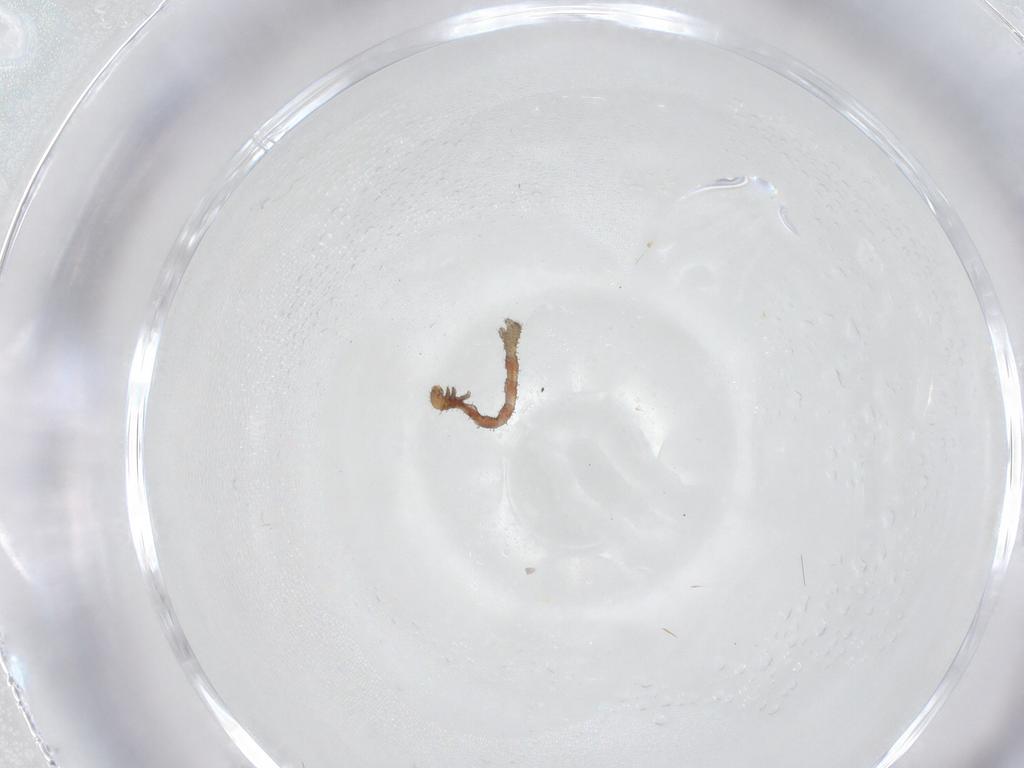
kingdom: Animalia
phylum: Arthropoda
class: Insecta
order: Lepidoptera
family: Geometridae
